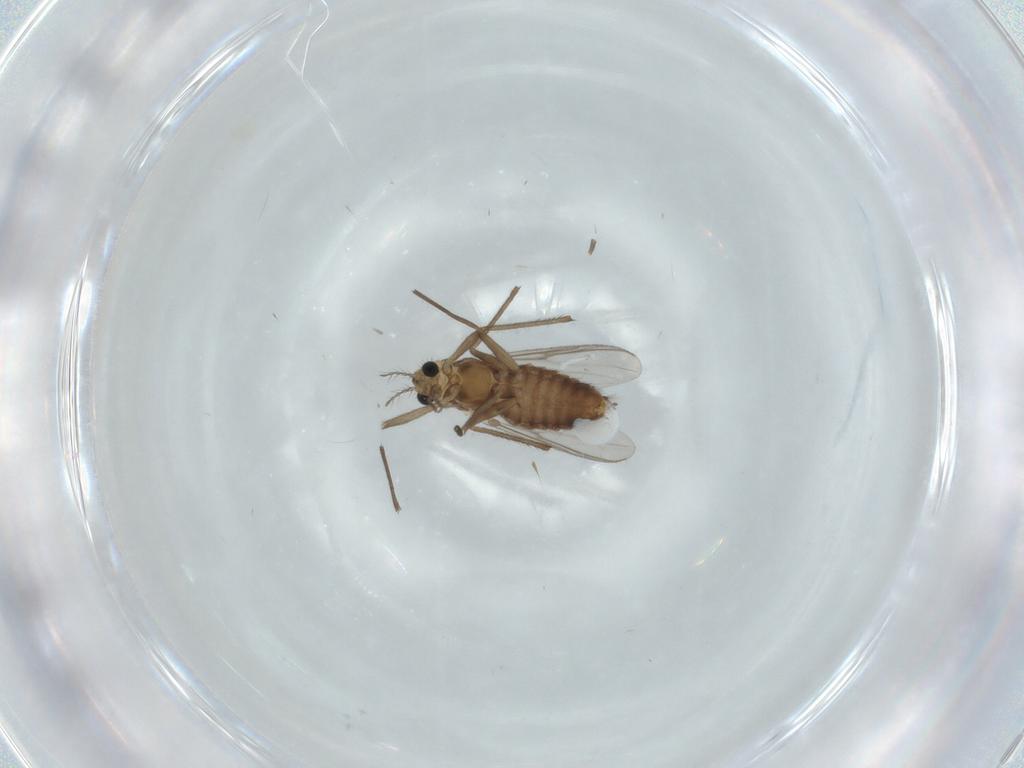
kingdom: Animalia
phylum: Arthropoda
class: Insecta
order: Diptera
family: Chironomidae
